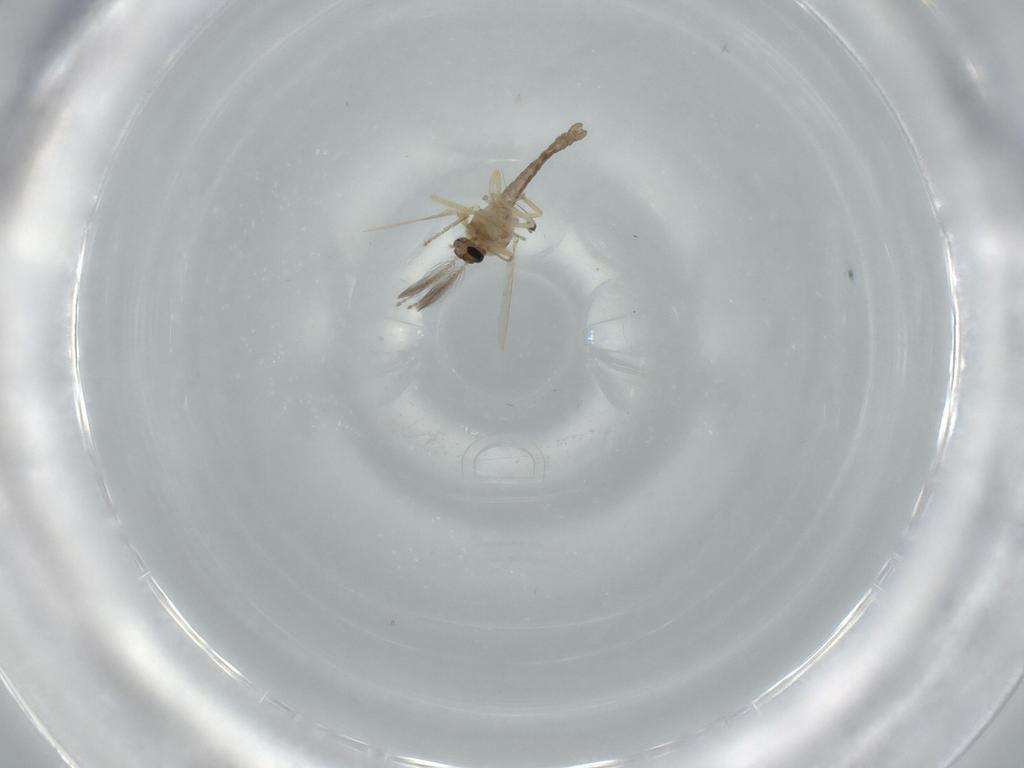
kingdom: Animalia
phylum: Arthropoda
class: Insecta
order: Diptera
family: Ceratopogonidae
